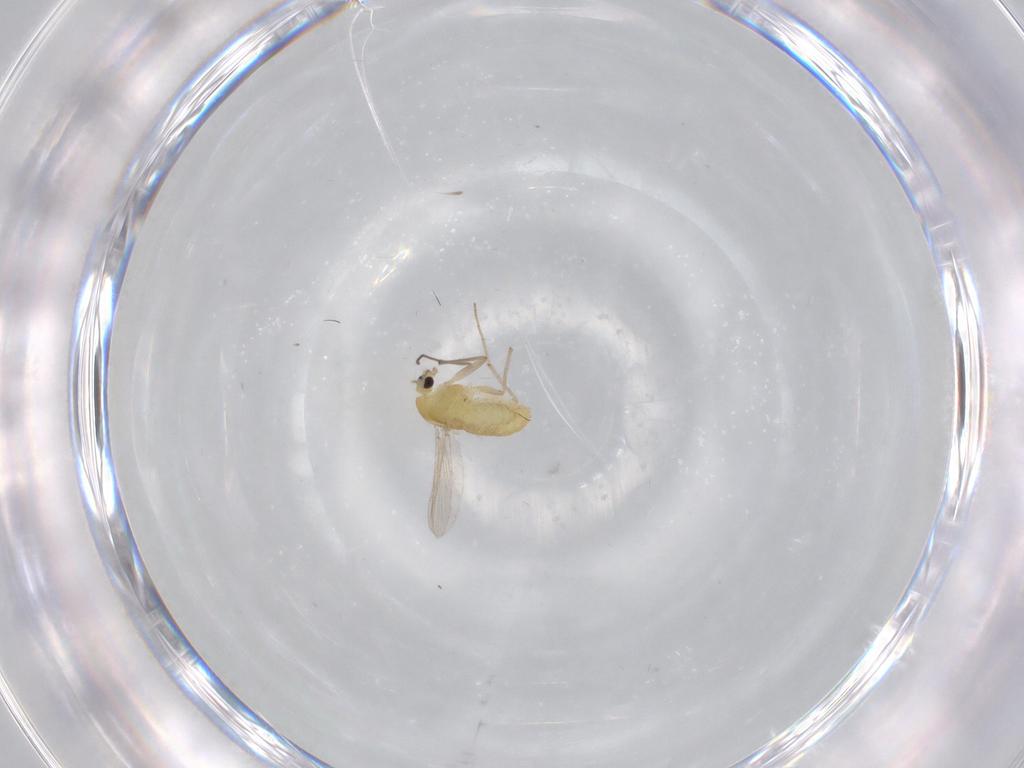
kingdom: Animalia
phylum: Arthropoda
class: Insecta
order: Diptera
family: Chironomidae
